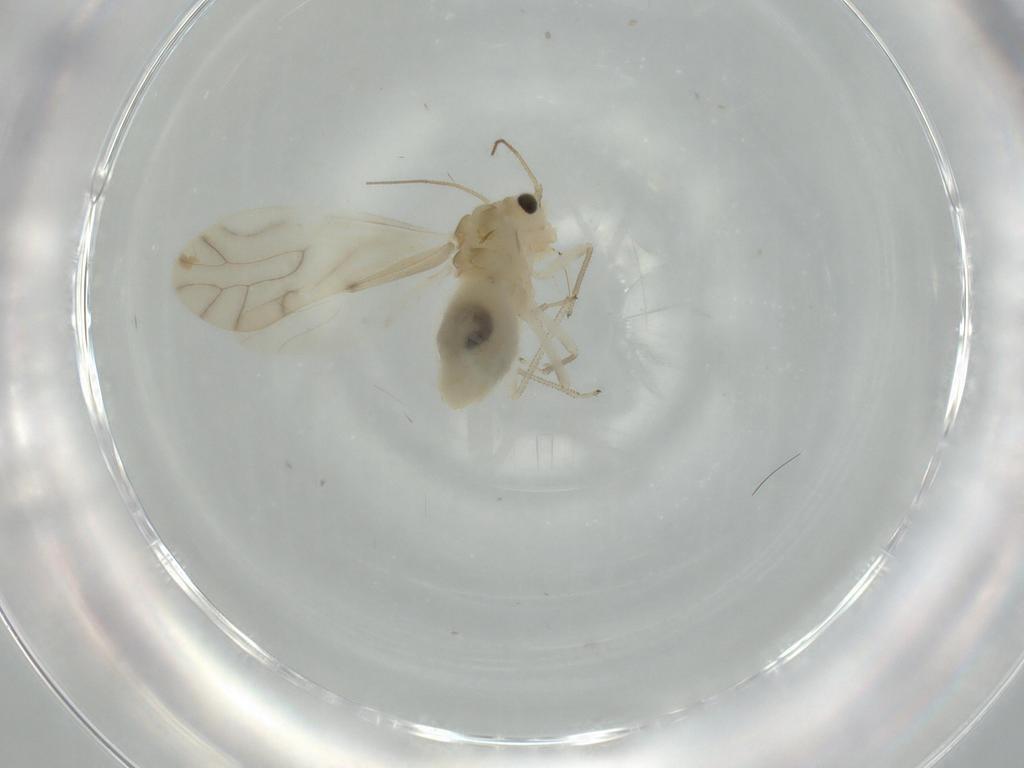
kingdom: Animalia
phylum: Arthropoda
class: Insecta
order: Psocodea
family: Caeciliusidae
